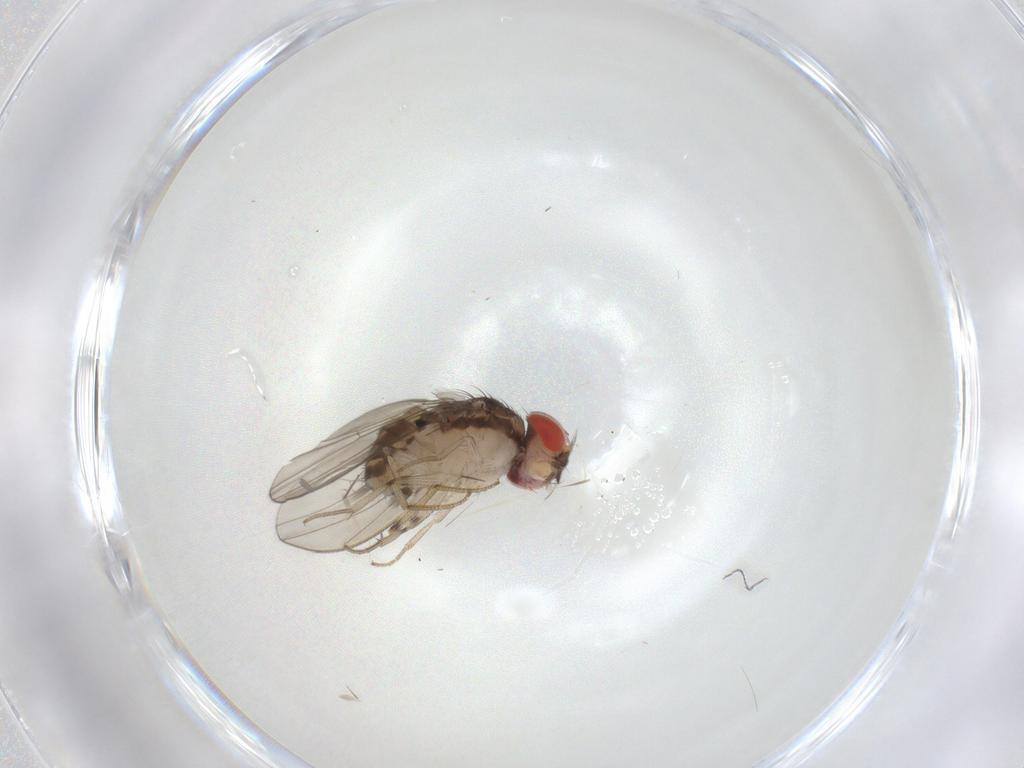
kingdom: Animalia
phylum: Arthropoda
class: Insecta
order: Diptera
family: Drosophilidae
